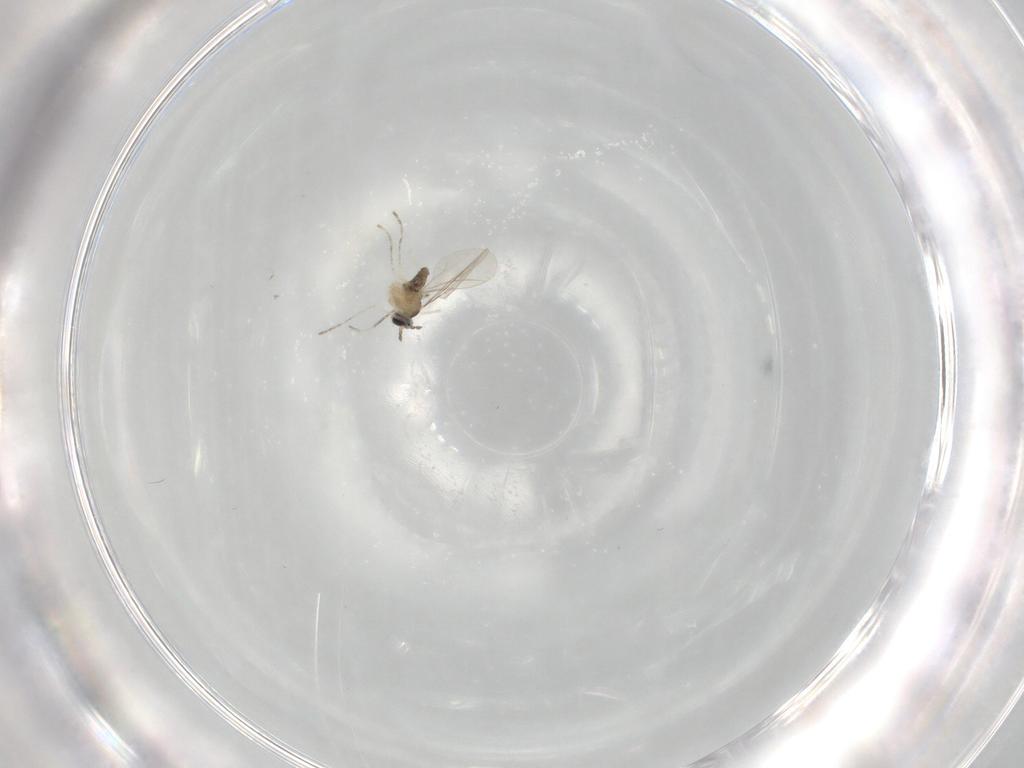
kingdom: Animalia
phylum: Arthropoda
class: Insecta
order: Diptera
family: Cecidomyiidae
